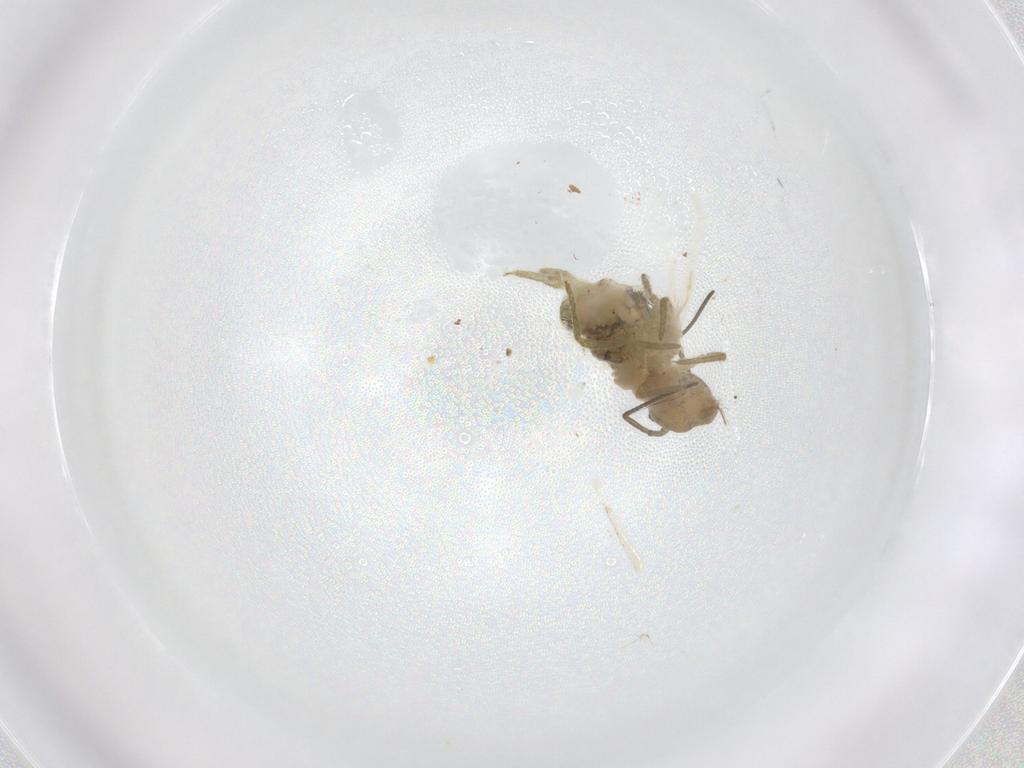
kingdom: Animalia
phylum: Arthropoda
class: Collembola
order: Symphypleona
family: Sminthuridae
